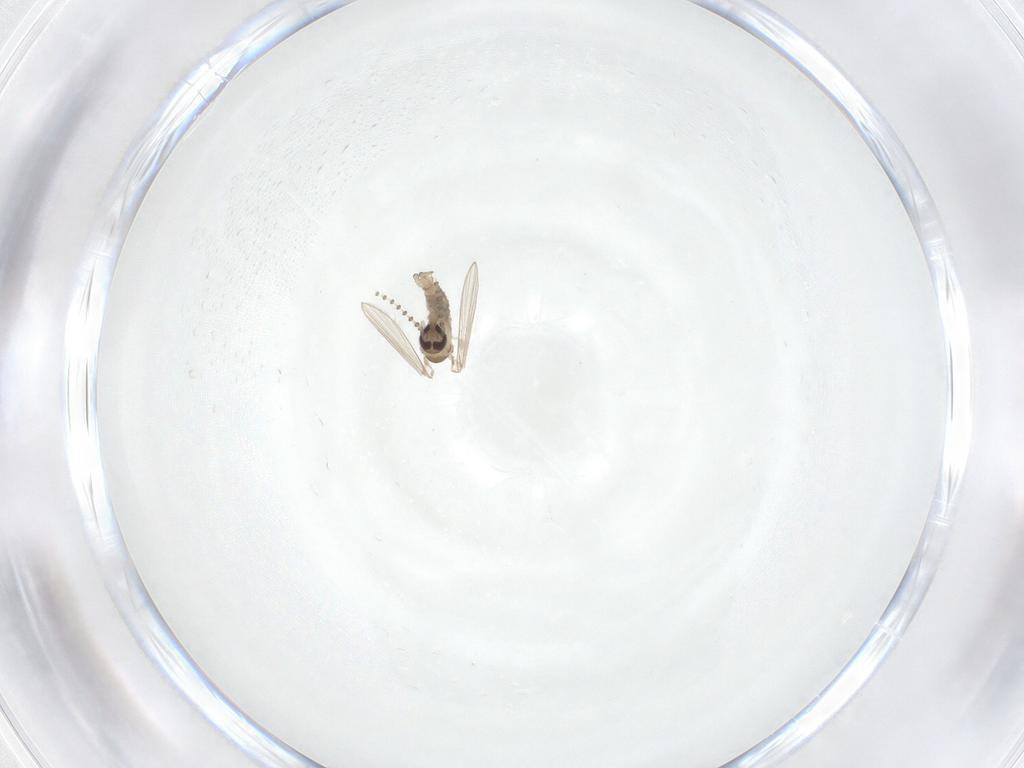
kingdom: Animalia
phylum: Arthropoda
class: Insecta
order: Diptera
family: Psychodidae
